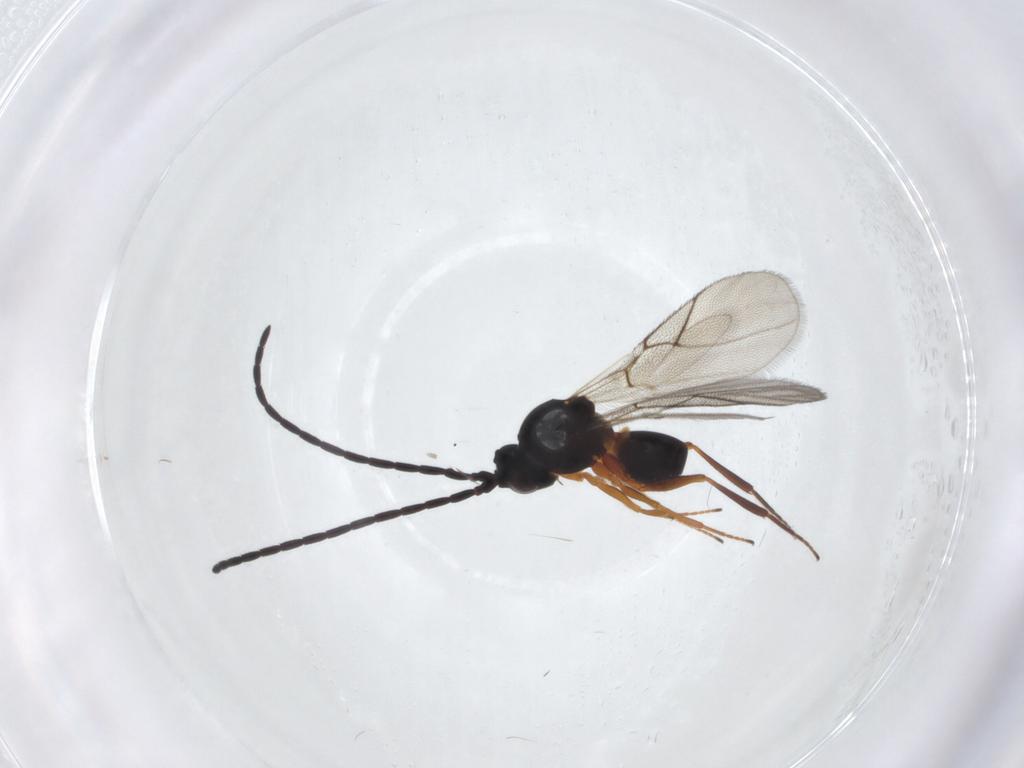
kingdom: Animalia
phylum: Arthropoda
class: Insecta
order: Hymenoptera
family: Figitidae
